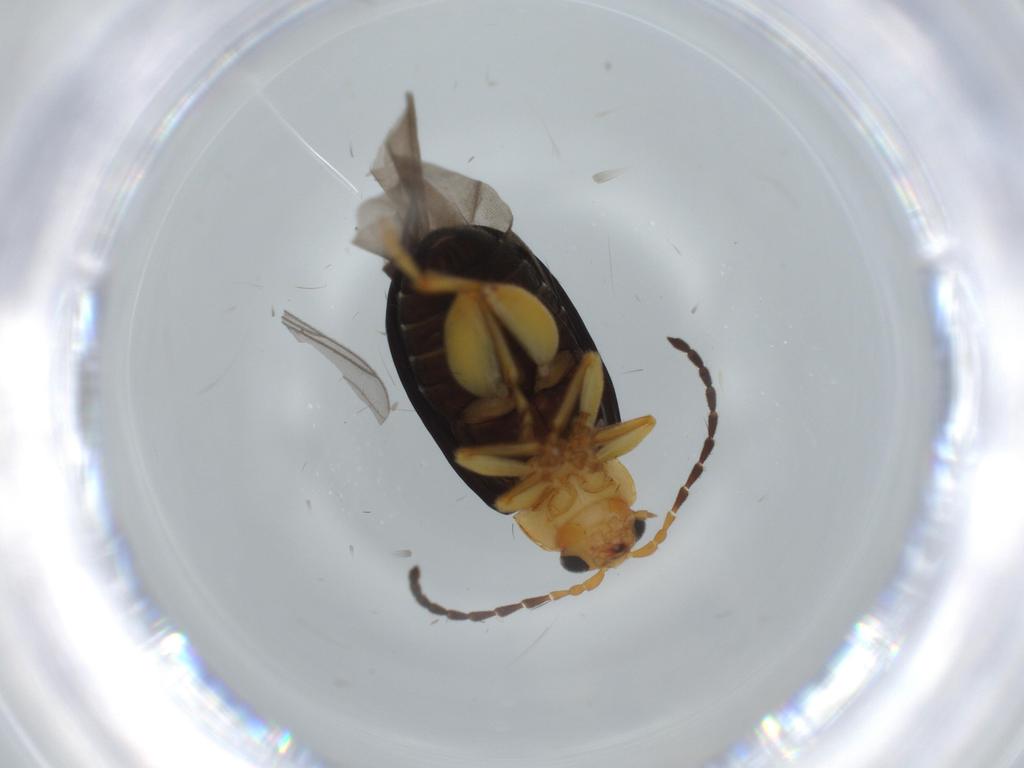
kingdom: Animalia
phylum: Arthropoda
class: Insecta
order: Coleoptera
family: Chrysomelidae
